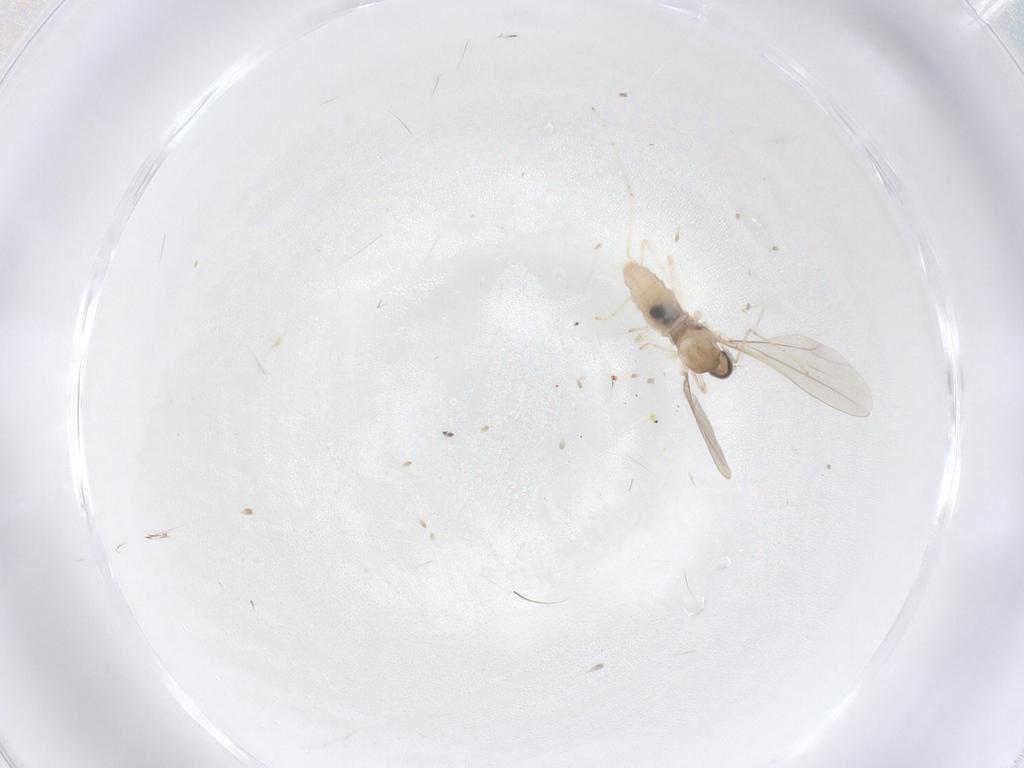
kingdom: Animalia
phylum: Arthropoda
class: Insecta
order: Diptera
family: Cecidomyiidae
